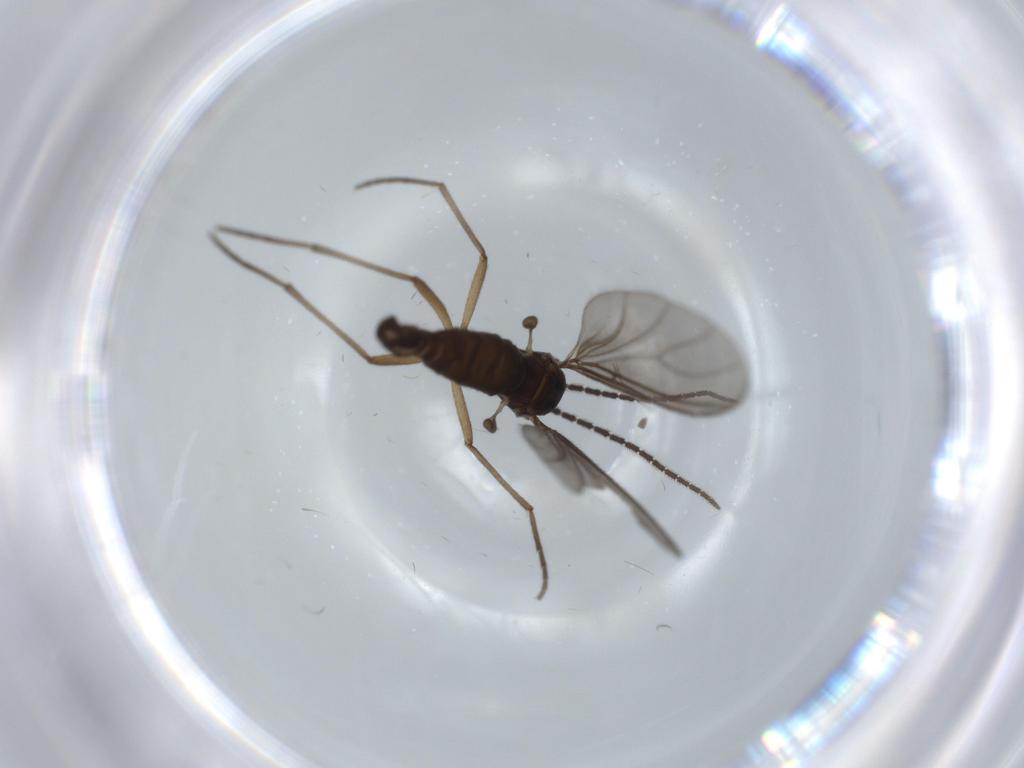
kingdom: Animalia
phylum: Arthropoda
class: Insecta
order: Diptera
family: Sciaridae
